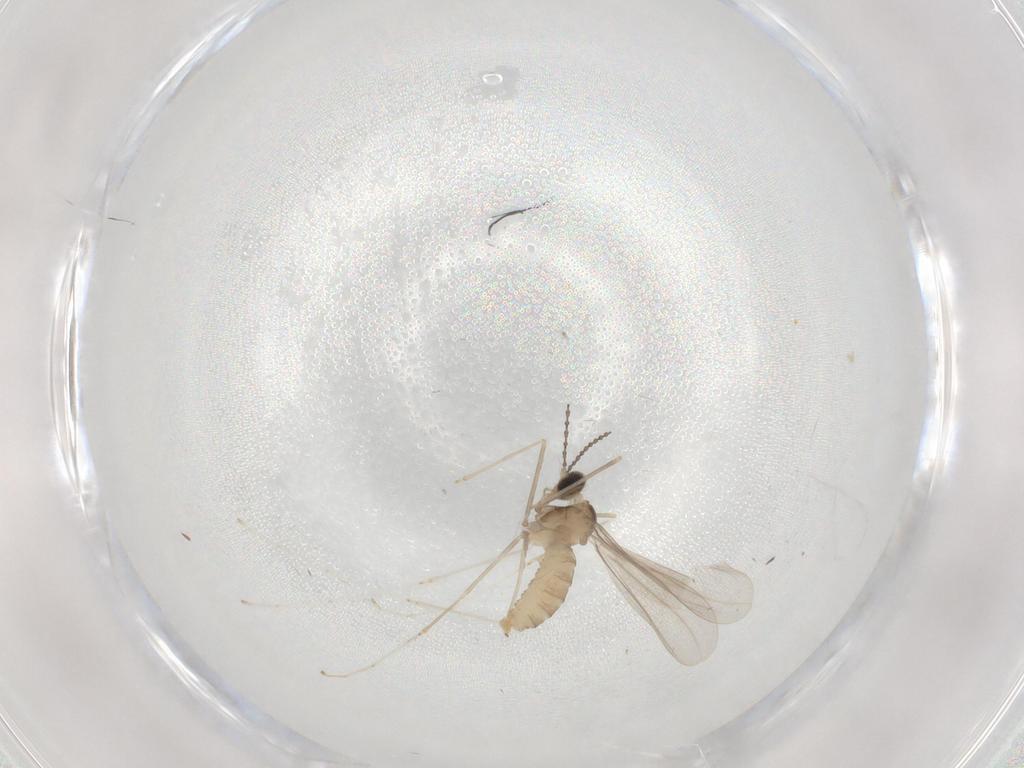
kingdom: Animalia
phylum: Arthropoda
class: Insecta
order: Diptera
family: Cecidomyiidae
